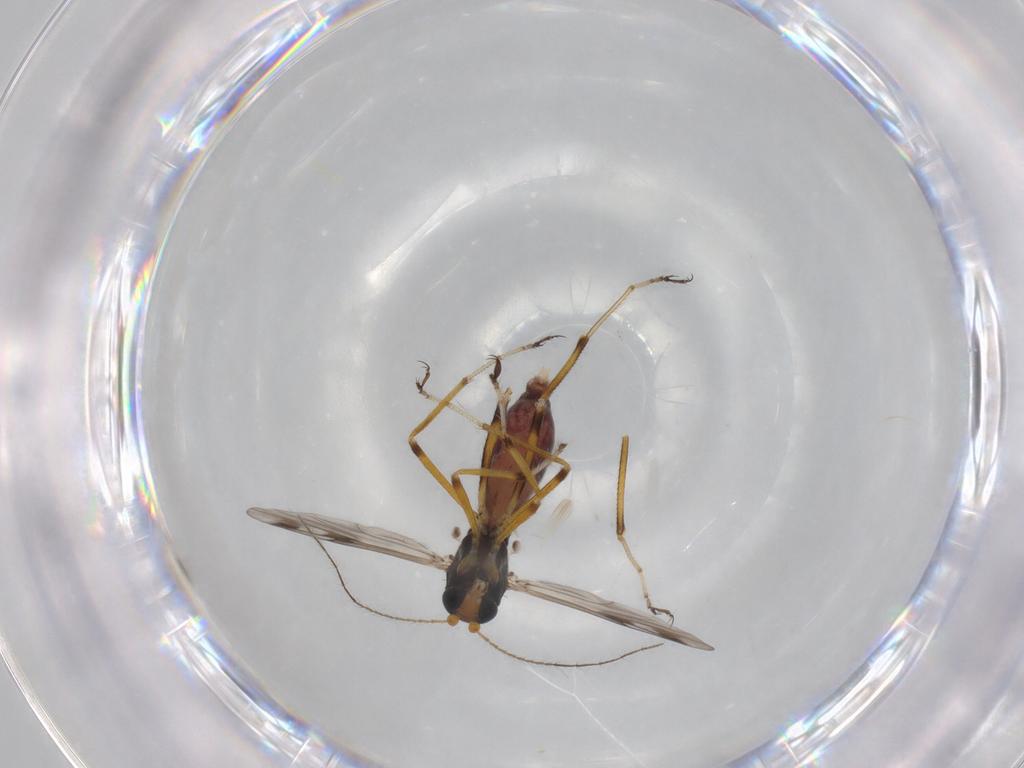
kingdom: Animalia
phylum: Arthropoda
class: Insecta
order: Diptera
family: Ceratopogonidae
